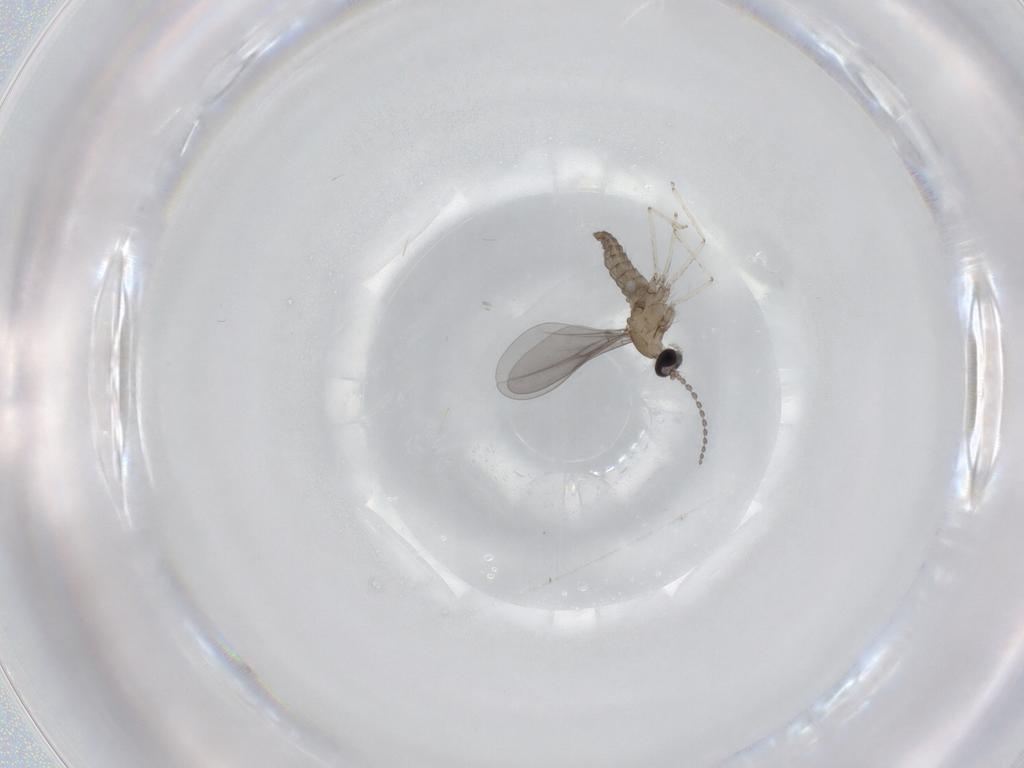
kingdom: Animalia
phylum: Arthropoda
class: Insecta
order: Diptera
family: Cecidomyiidae
